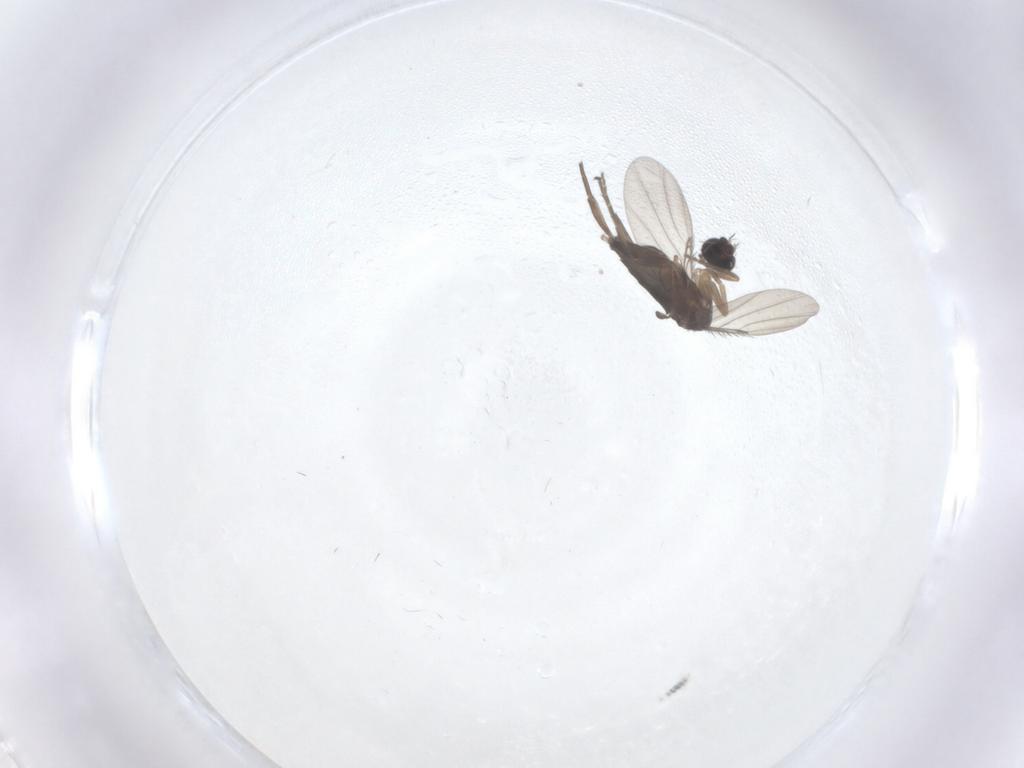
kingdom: Animalia
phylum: Arthropoda
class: Insecta
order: Diptera
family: Phoridae
